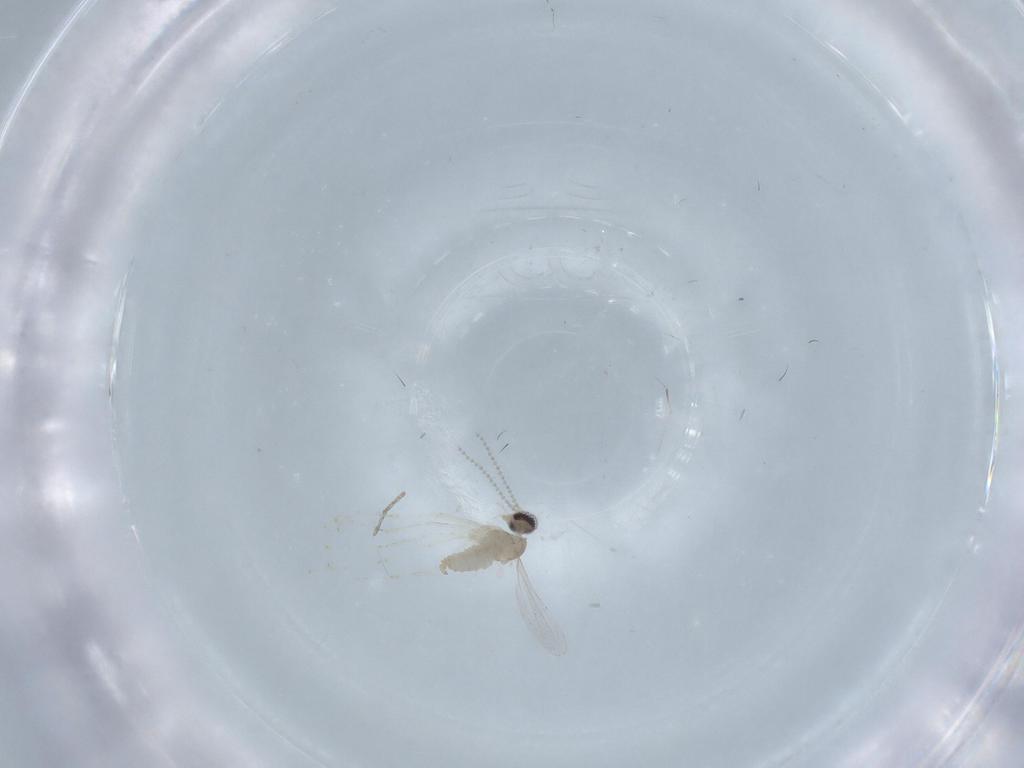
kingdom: Animalia
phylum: Arthropoda
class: Insecta
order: Diptera
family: Cecidomyiidae
